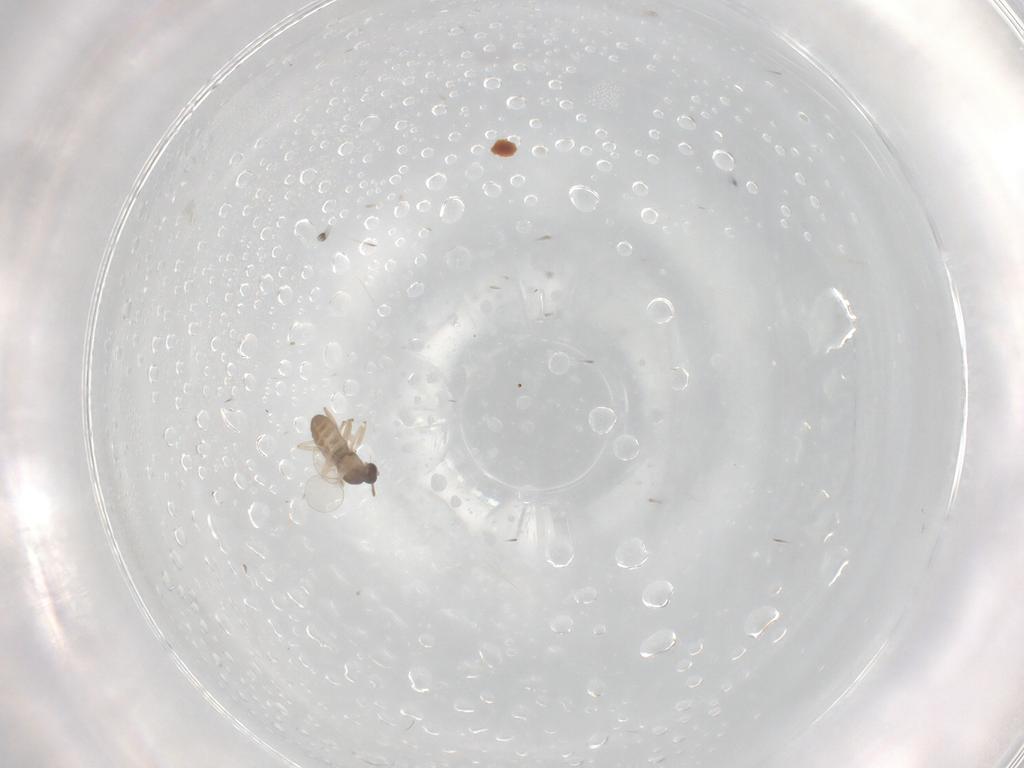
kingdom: Animalia
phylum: Arthropoda
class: Insecta
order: Diptera
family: Cecidomyiidae
